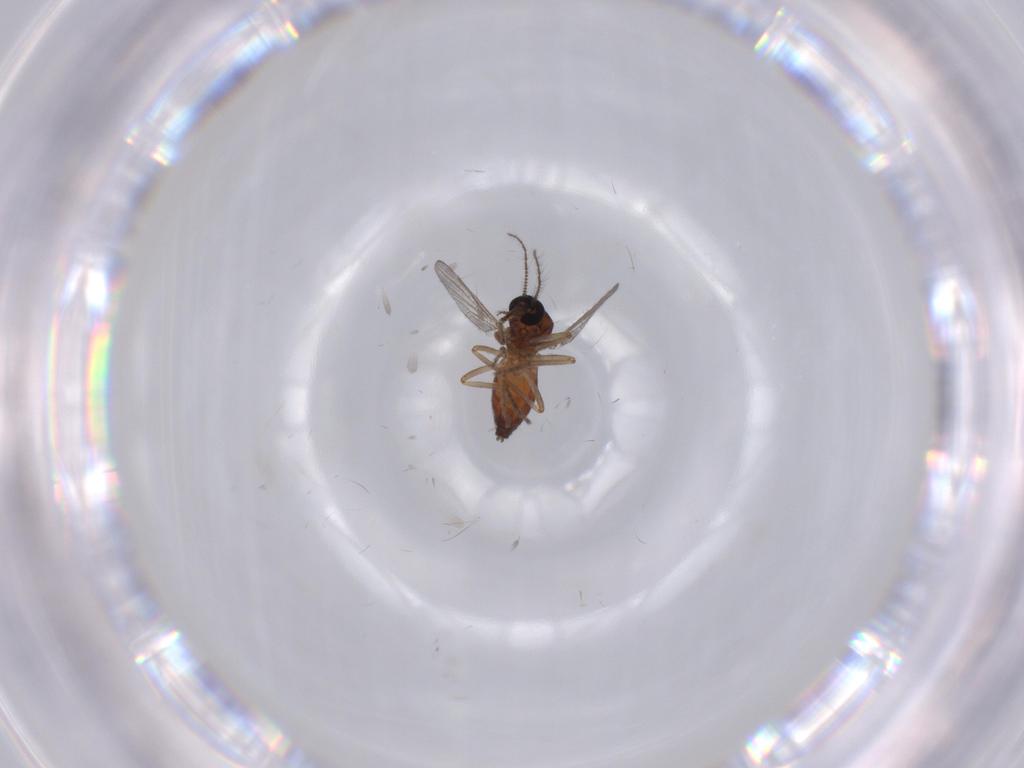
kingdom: Animalia
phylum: Arthropoda
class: Insecta
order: Diptera
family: Ceratopogonidae
